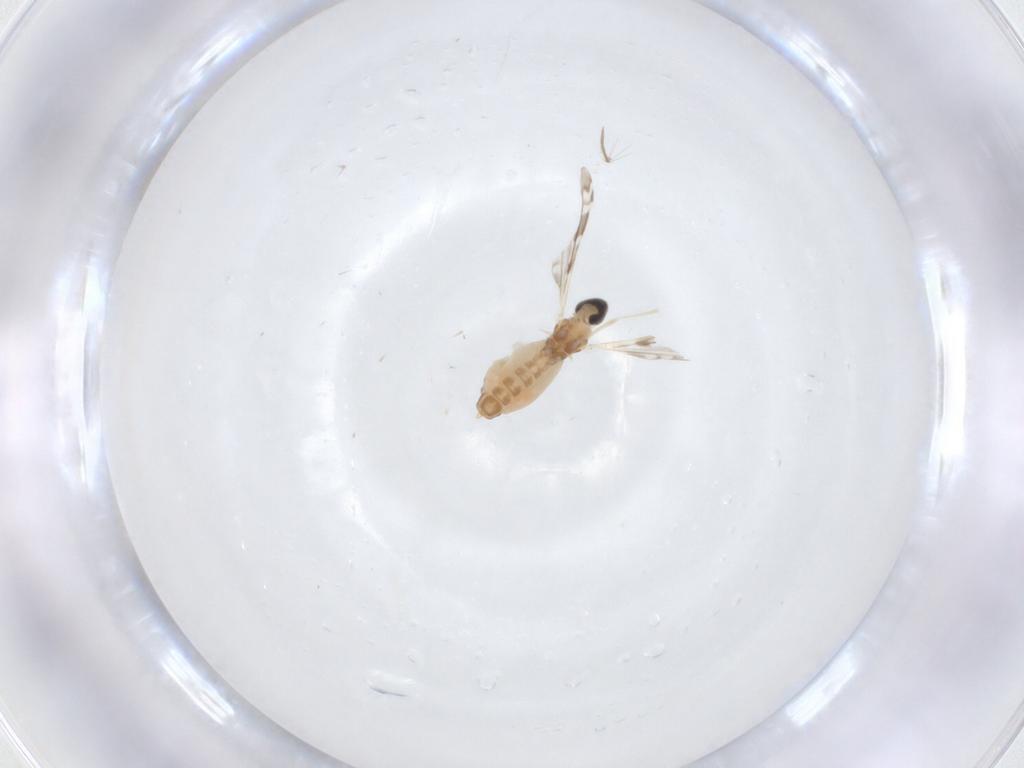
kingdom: Animalia
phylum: Arthropoda
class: Insecta
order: Diptera
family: Cecidomyiidae
